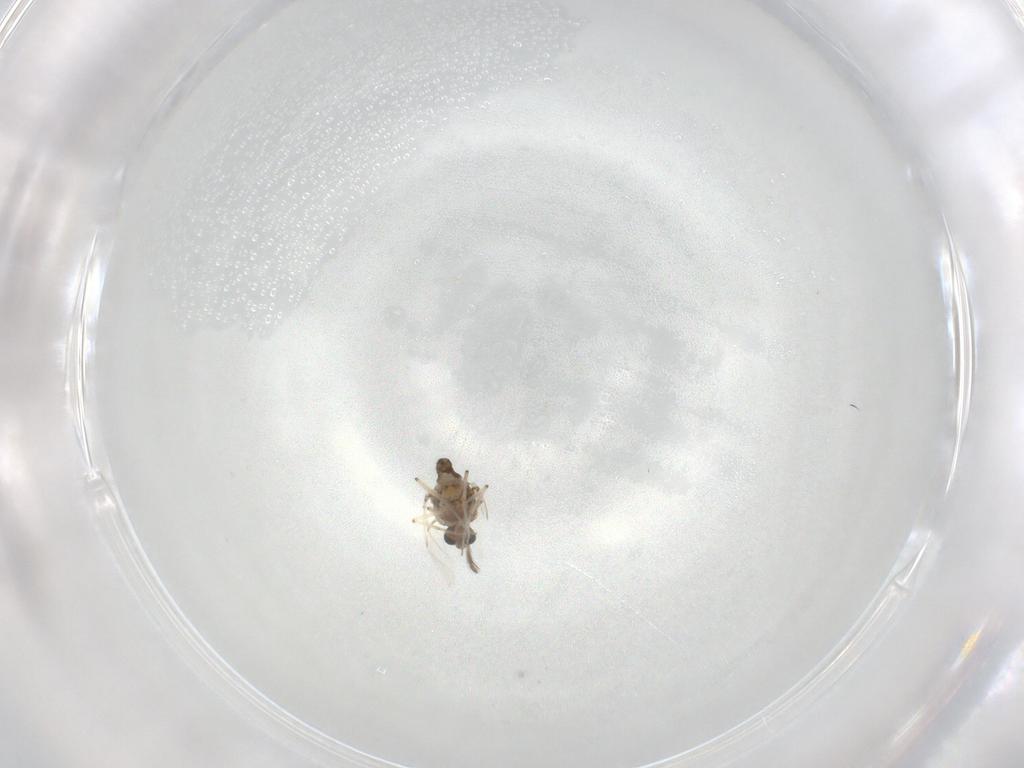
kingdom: Animalia
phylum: Arthropoda
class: Insecta
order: Diptera
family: Ceratopogonidae
